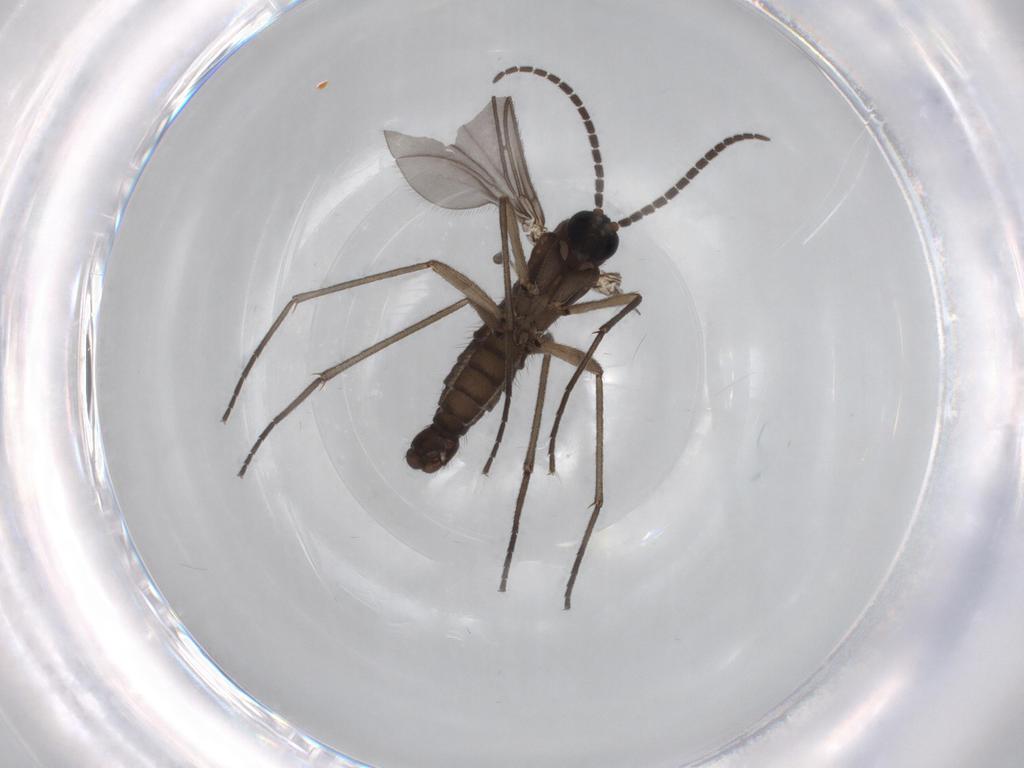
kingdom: Animalia
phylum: Arthropoda
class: Insecta
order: Diptera
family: Sciaridae
